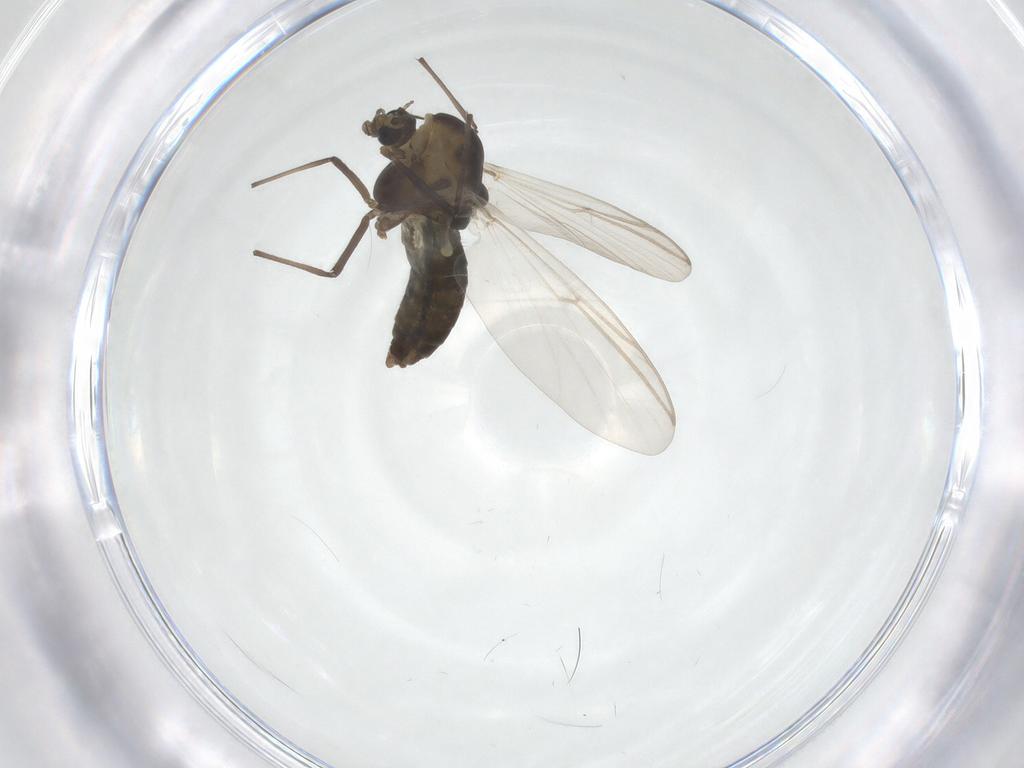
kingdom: Animalia
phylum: Arthropoda
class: Insecta
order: Diptera
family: Chironomidae
